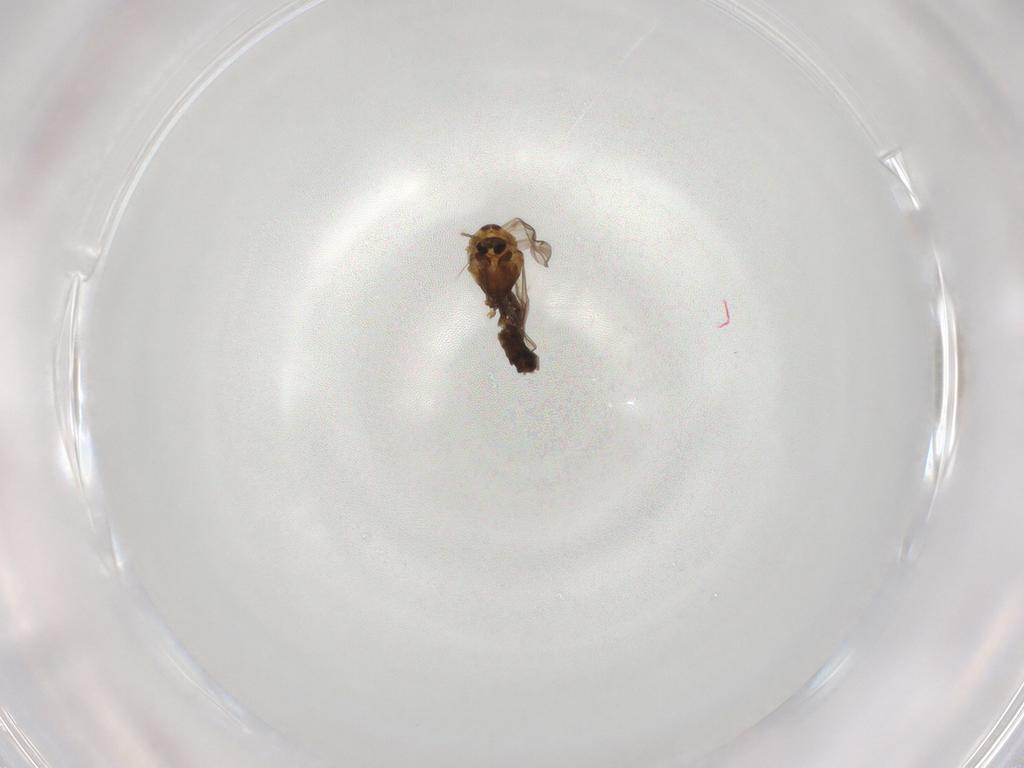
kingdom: Animalia
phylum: Arthropoda
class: Insecta
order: Diptera
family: Chironomidae
